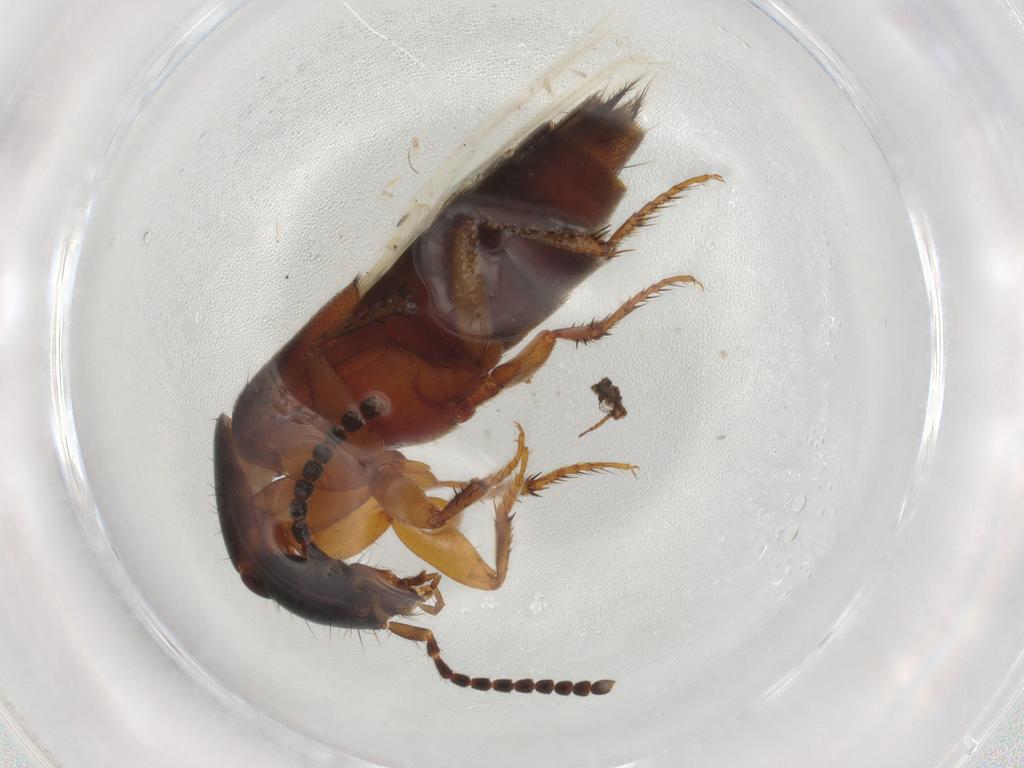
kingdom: Animalia
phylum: Arthropoda
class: Insecta
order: Coleoptera
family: Staphylinidae
